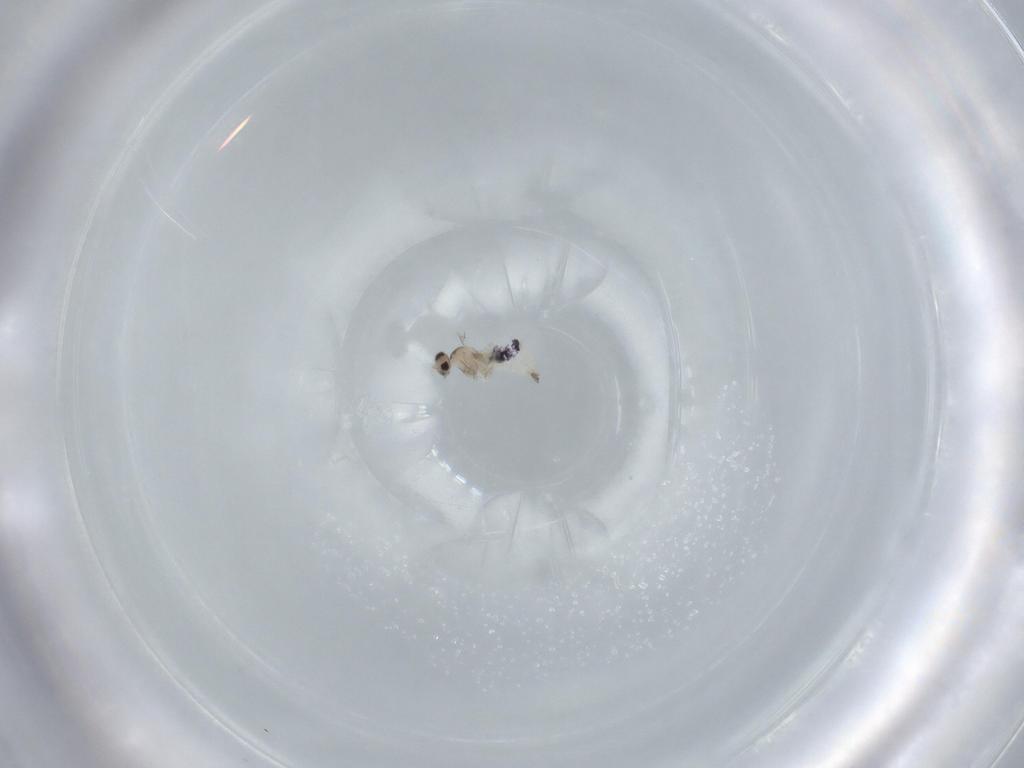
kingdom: Animalia
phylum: Arthropoda
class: Insecta
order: Diptera
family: Cecidomyiidae
